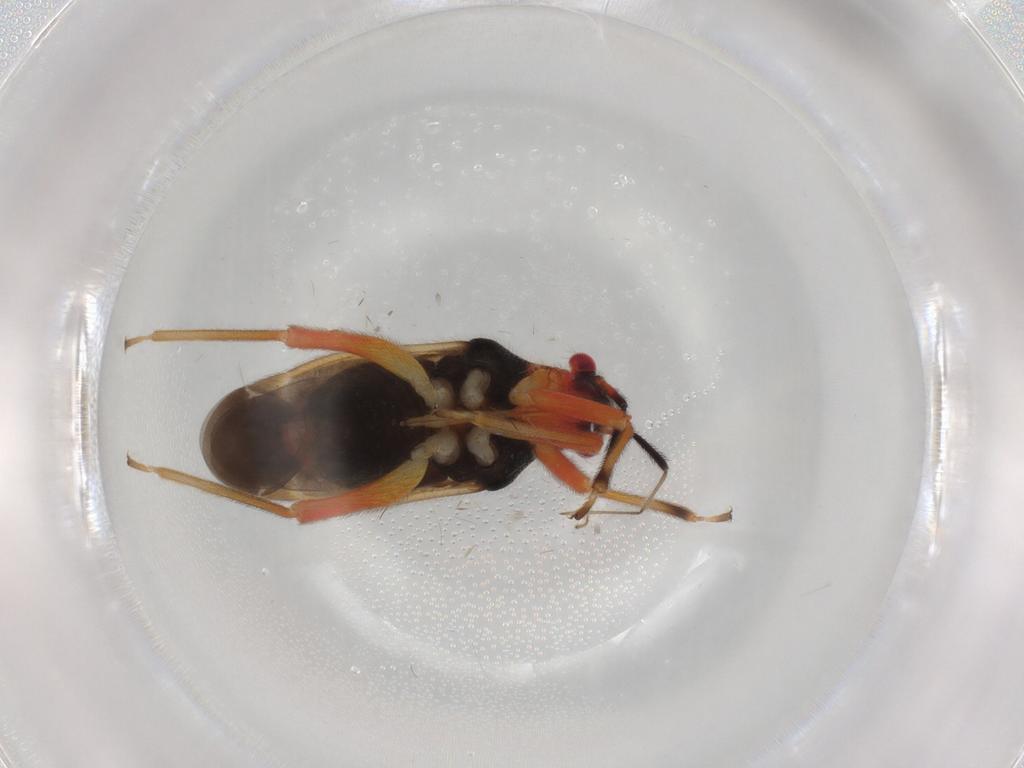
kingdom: Animalia
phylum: Arthropoda
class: Insecta
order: Hemiptera
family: Miridae
